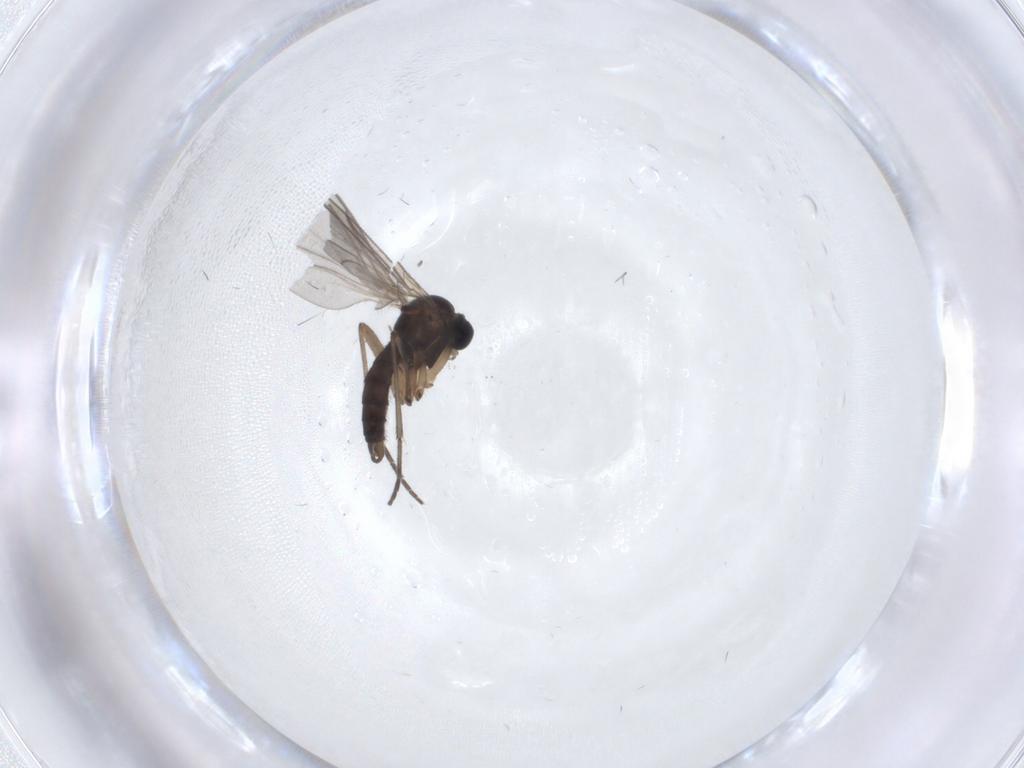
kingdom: Animalia
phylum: Arthropoda
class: Insecta
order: Diptera
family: Sciaridae
